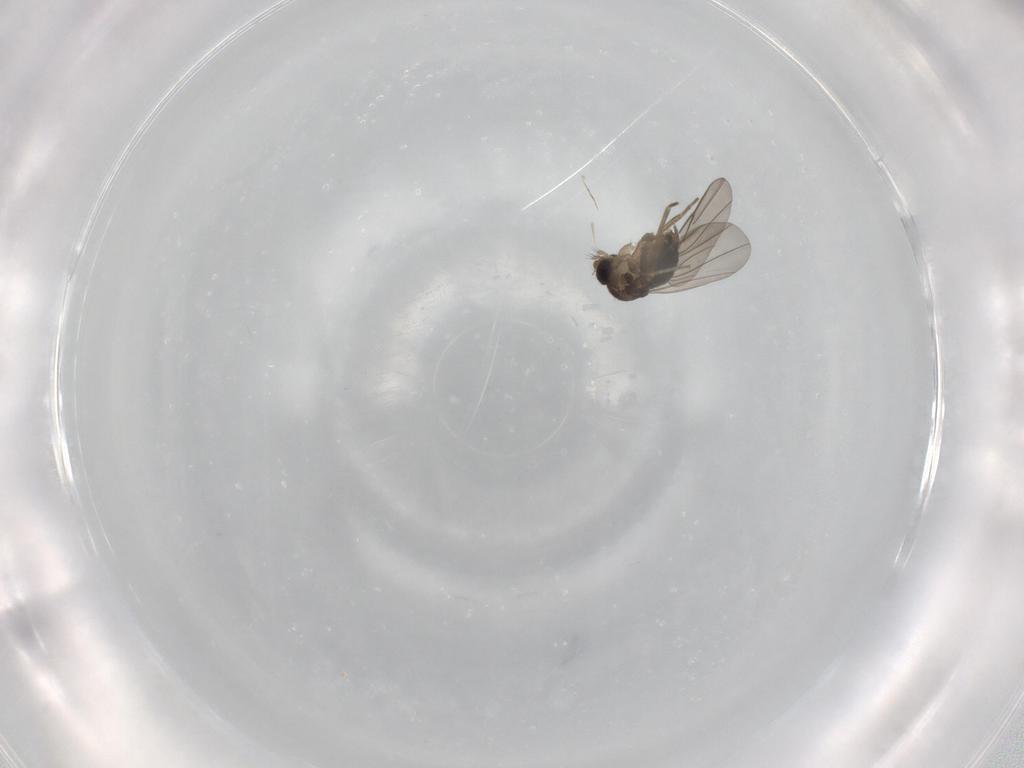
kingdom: Animalia
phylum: Arthropoda
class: Insecta
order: Diptera
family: Phoridae
